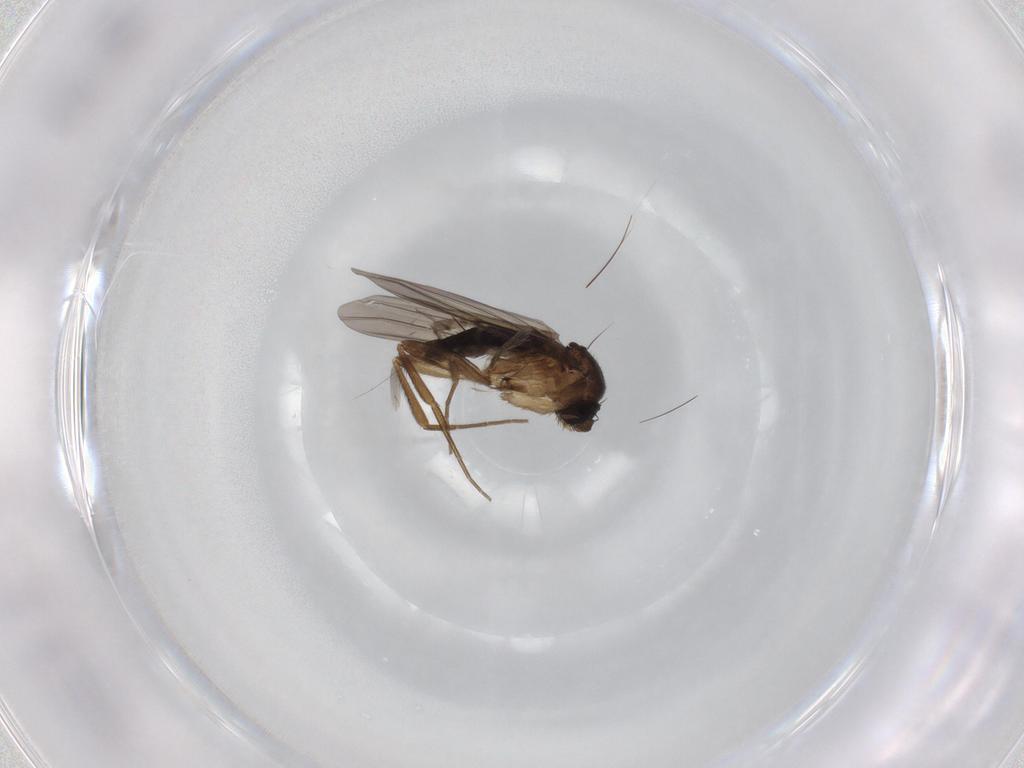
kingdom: Animalia
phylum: Arthropoda
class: Insecta
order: Diptera
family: Phoridae
